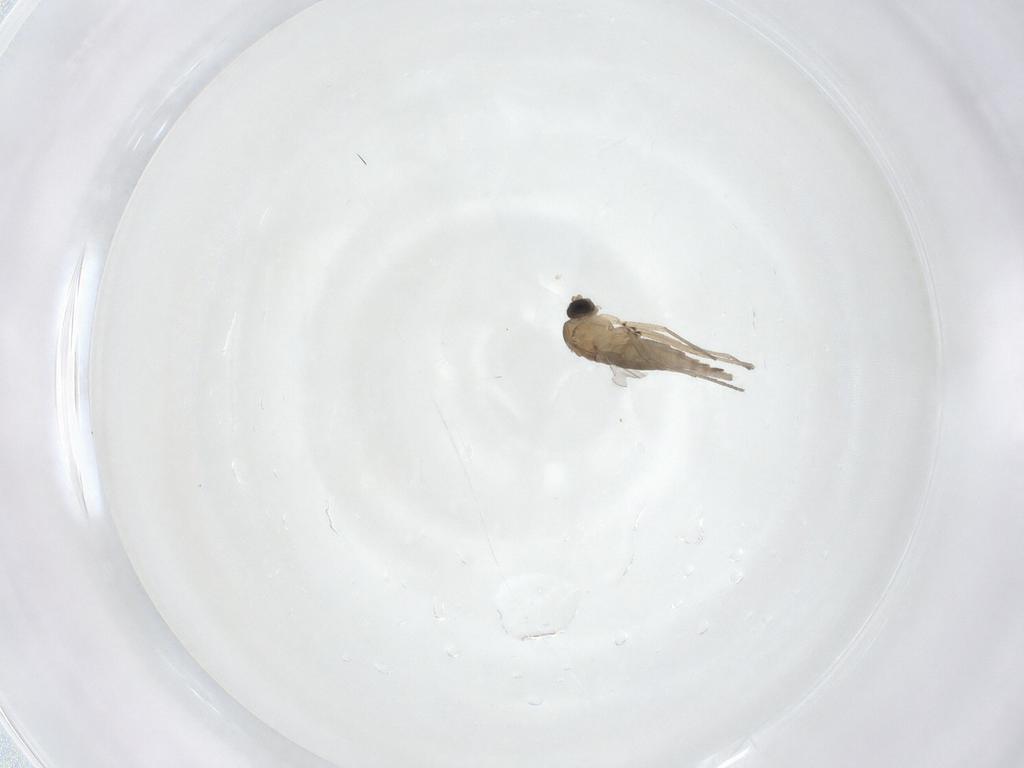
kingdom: Animalia
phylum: Arthropoda
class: Insecta
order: Diptera
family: Sciaridae
